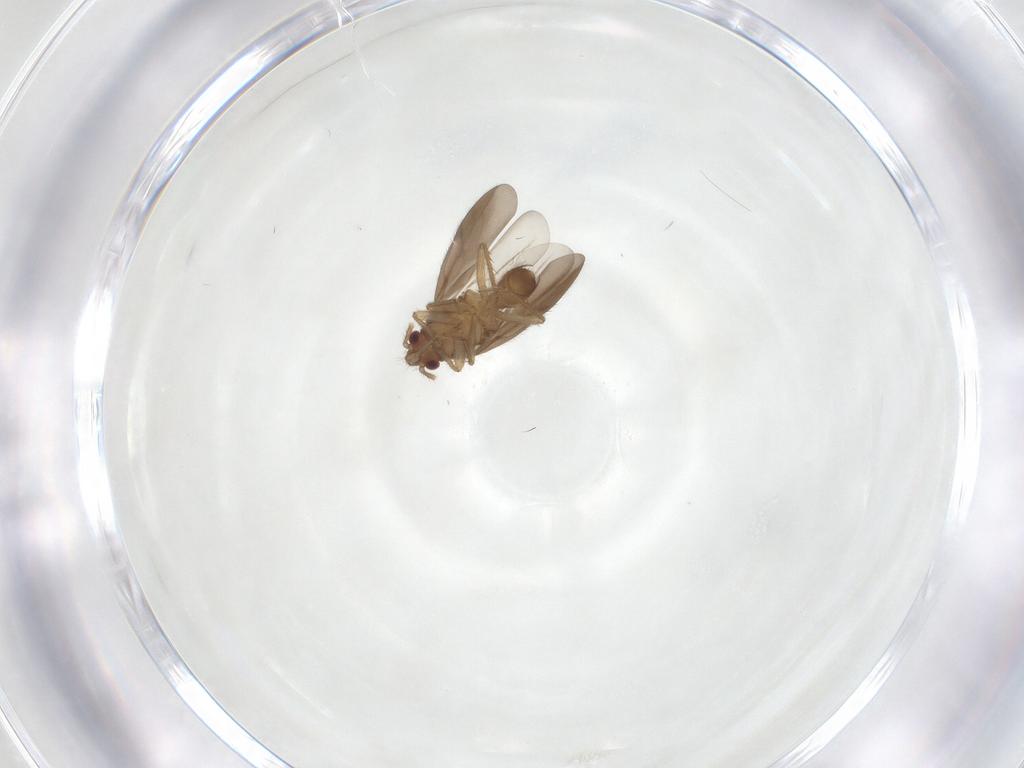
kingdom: Animalia
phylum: Arthropoda
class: Insecta
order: Hemiptera
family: Ceratocombidae
